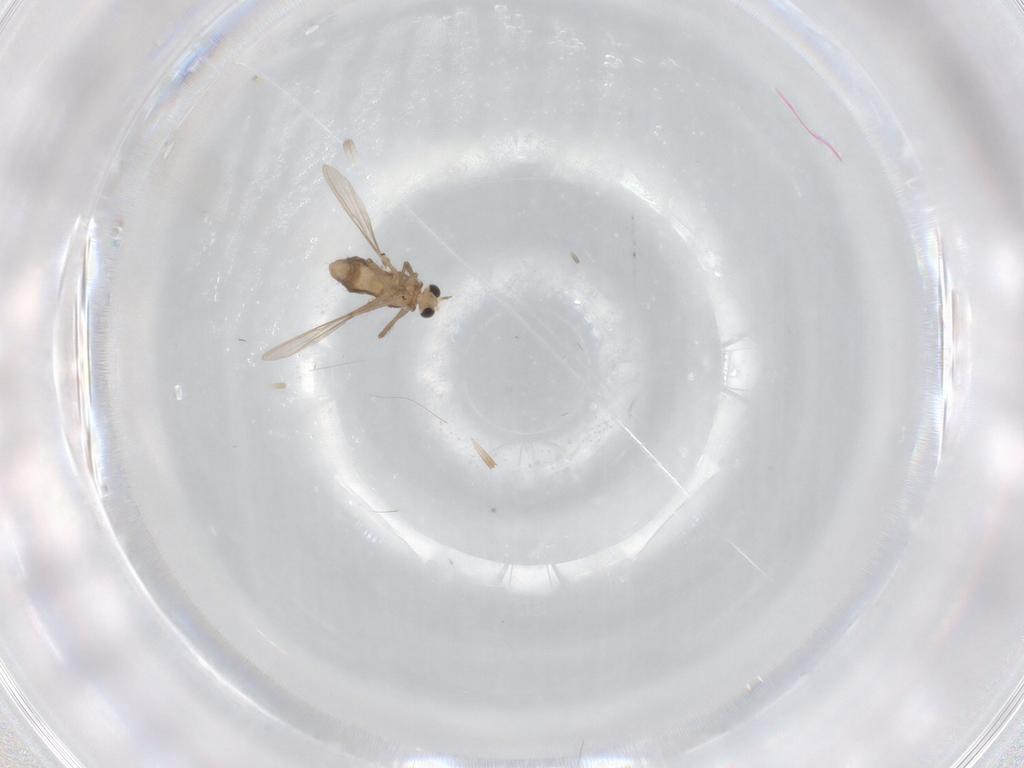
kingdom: Animalia
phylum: Arthropoda
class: Insecta
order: Diptera
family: Chironomidae
